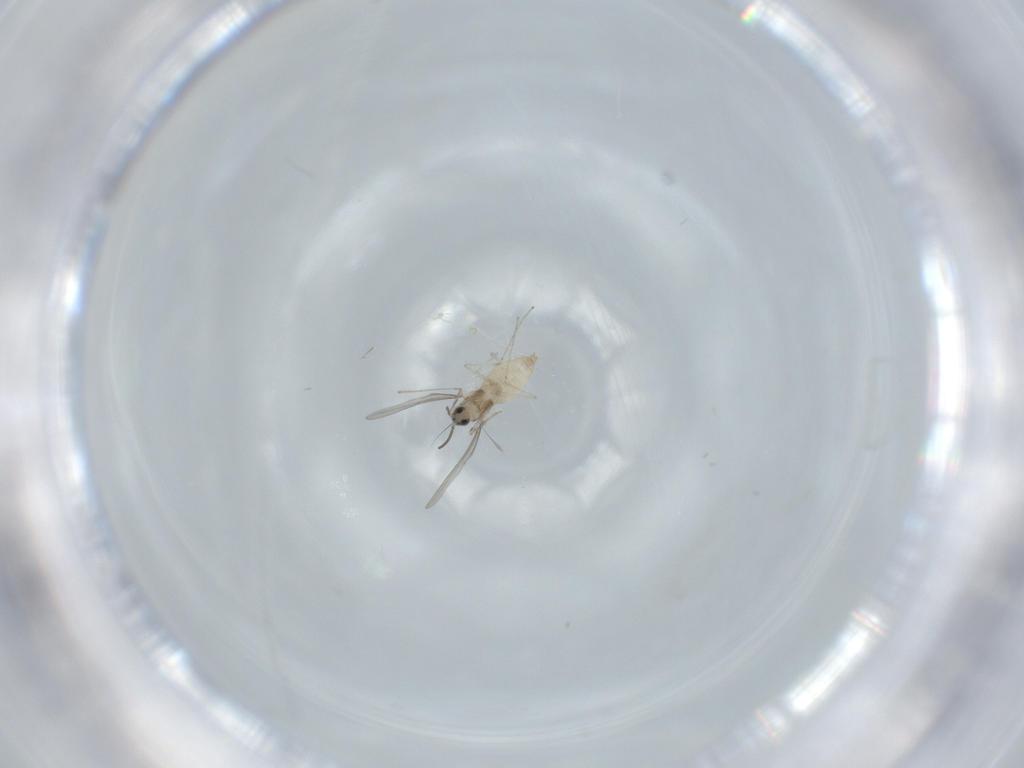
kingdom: Animalia
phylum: Arthropoda
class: Insecta
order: Diptera
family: Cecidomyiidae
